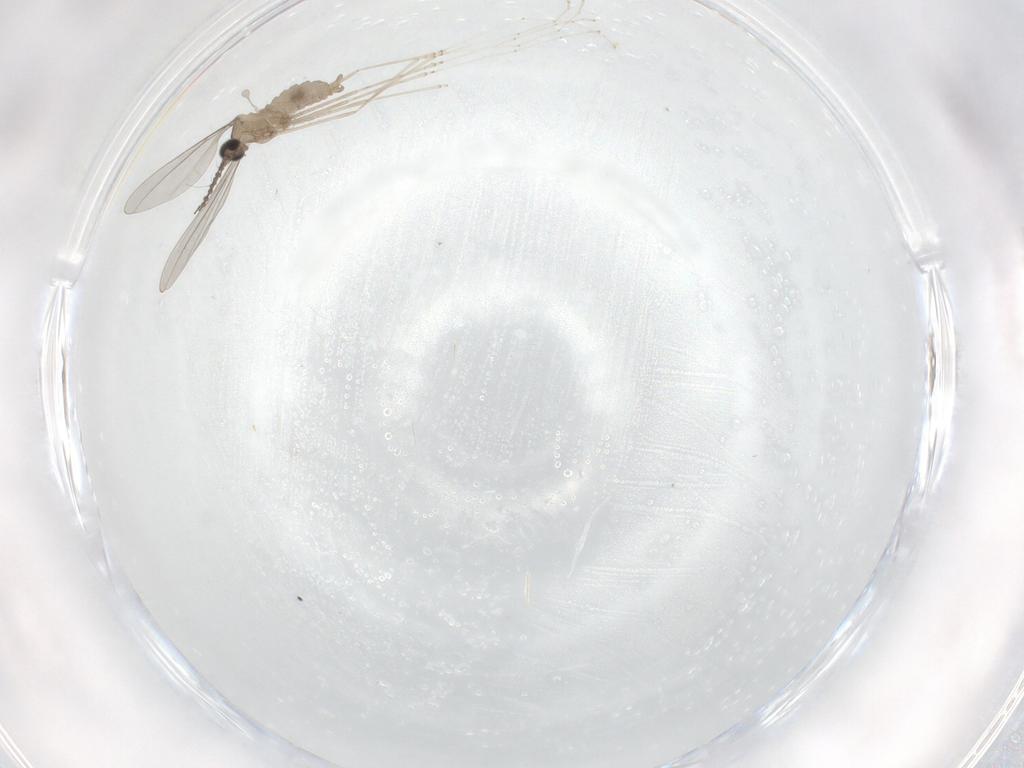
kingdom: Animalia
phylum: Arthropoda
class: Insecta
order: Diptera
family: Cecidomyiidae
